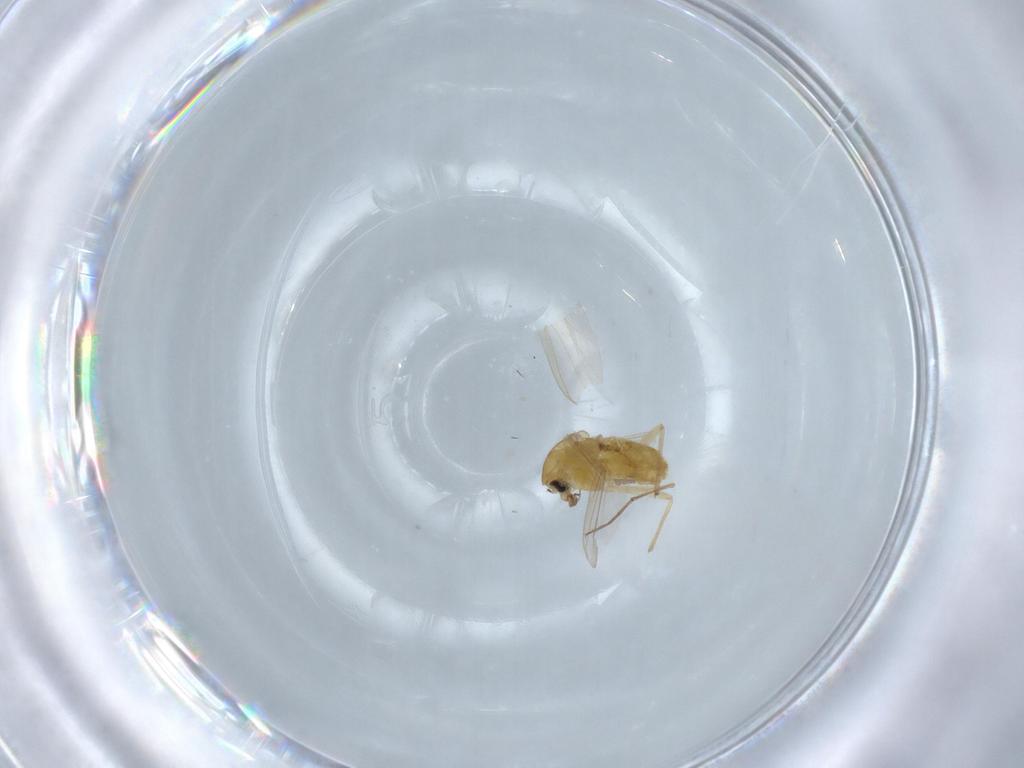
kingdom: Animalia
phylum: Arthropoda
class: Insecta
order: Diptera
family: Chironomidae
